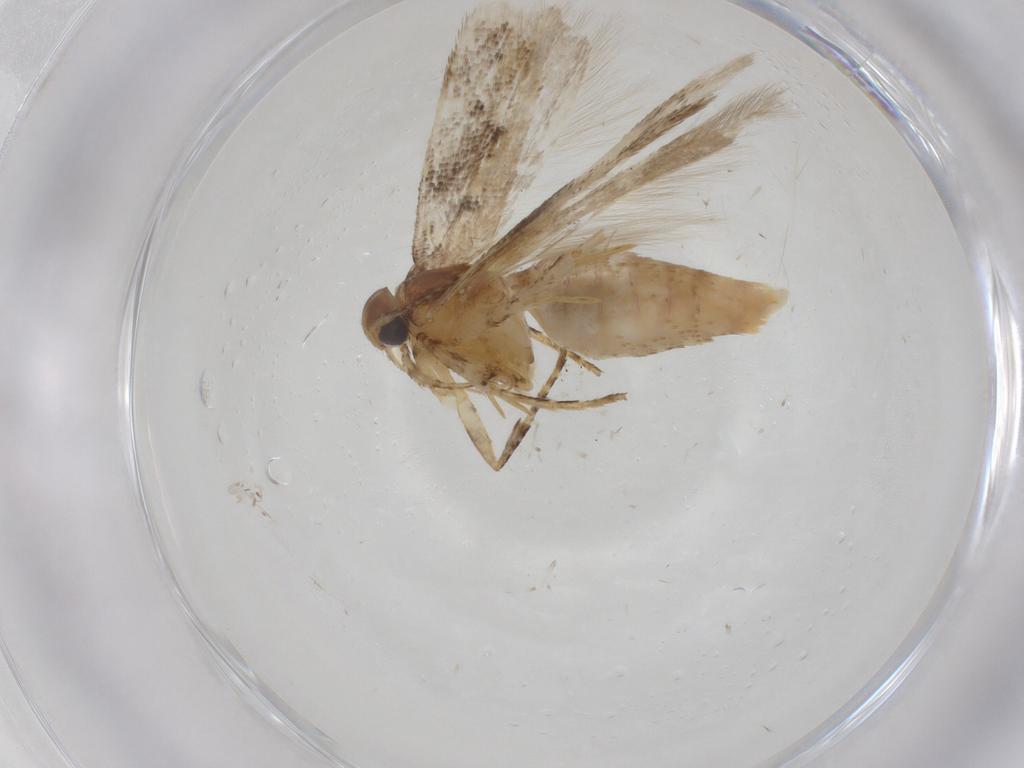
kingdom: Animalia
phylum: Arthropoda
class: Insecta
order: Lepidoptera
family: Gelechiidae
